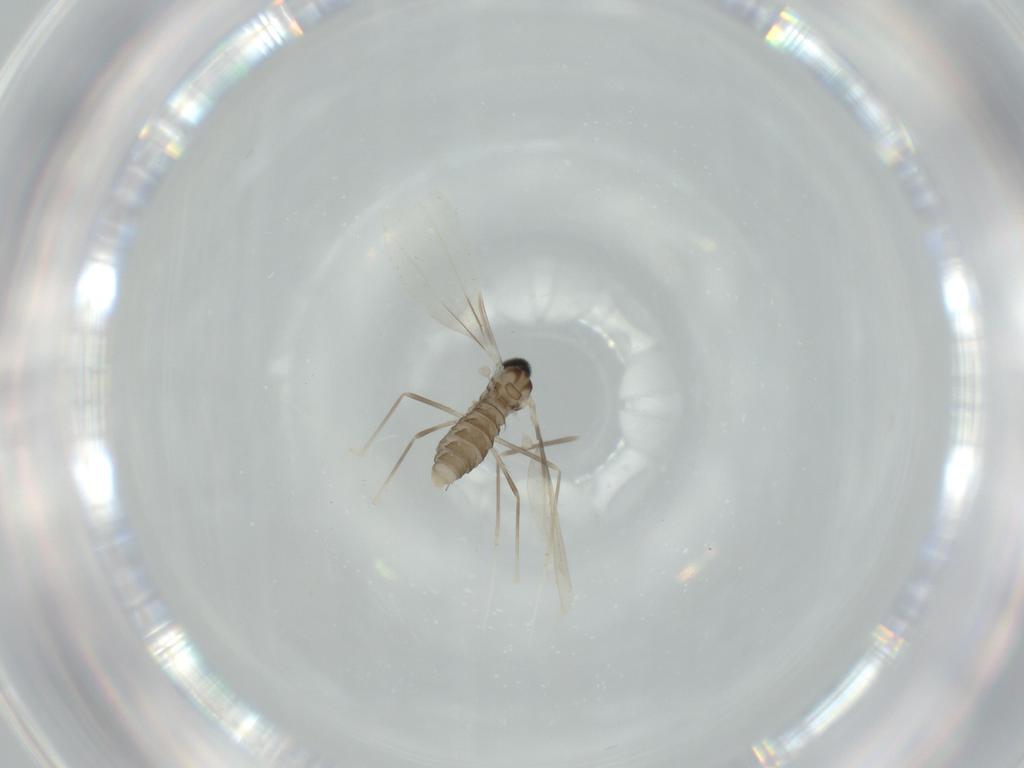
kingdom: Animalia
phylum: Arthropoda
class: Insecta
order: Diptera
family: Cecidomyiidae
